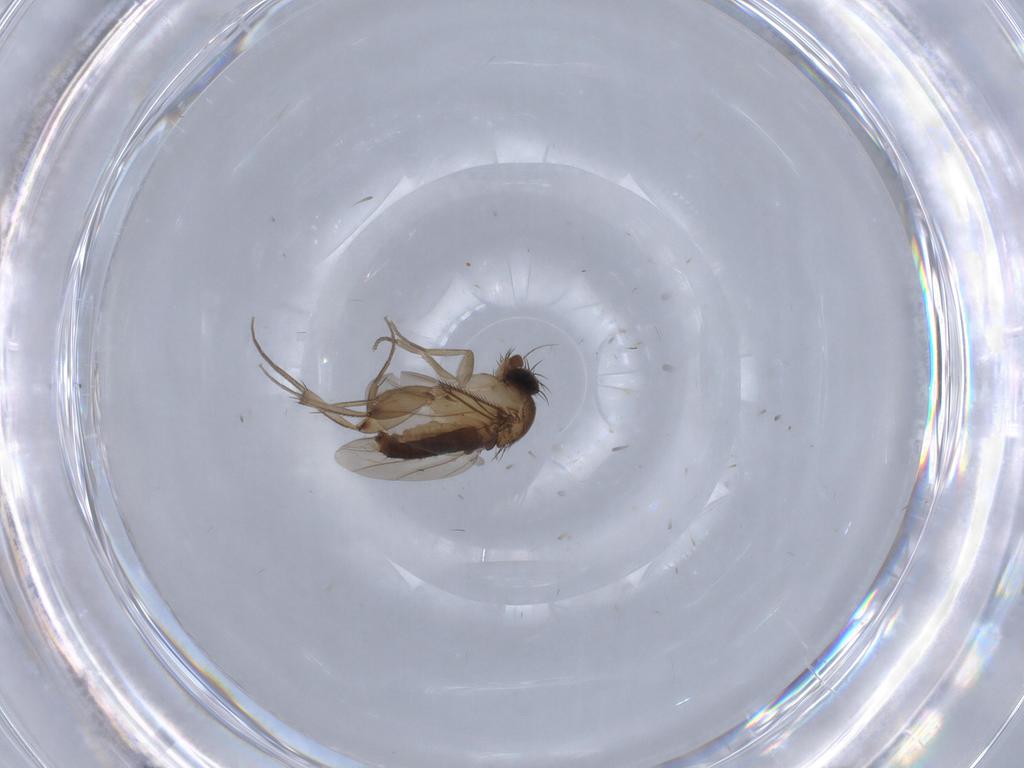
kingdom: Animalia
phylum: Arthropoda
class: Insecta
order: Diptera
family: Phoridae
